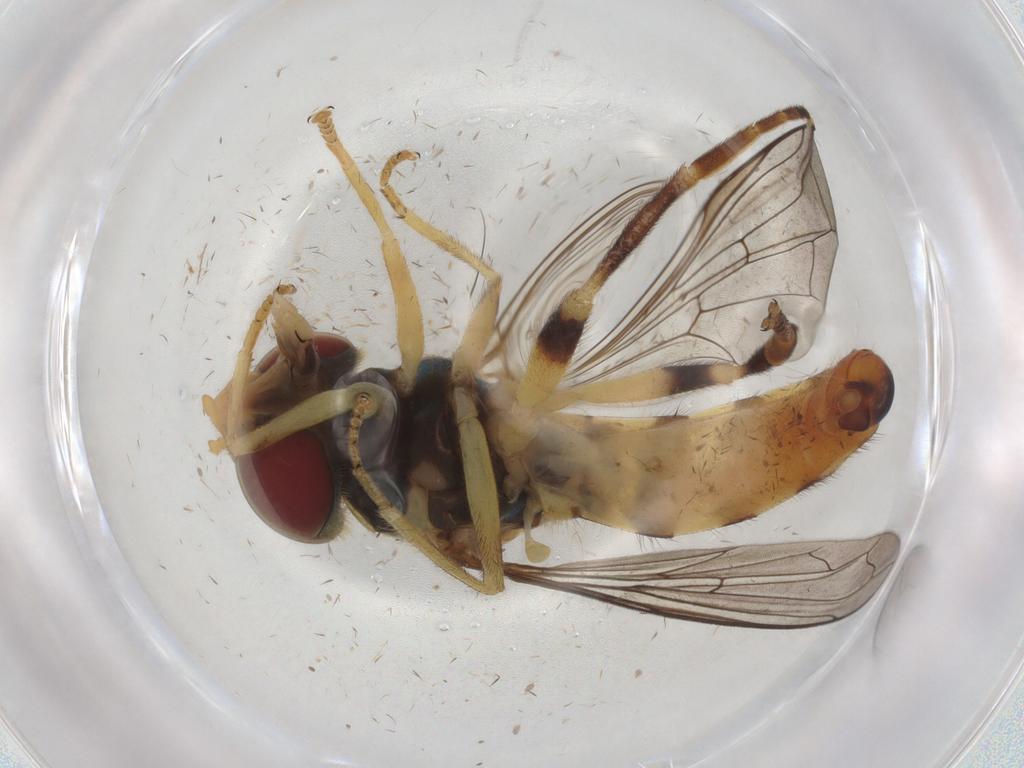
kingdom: Animalia
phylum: Arthropoda
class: Insecta
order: Diptera
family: Syrphidae
